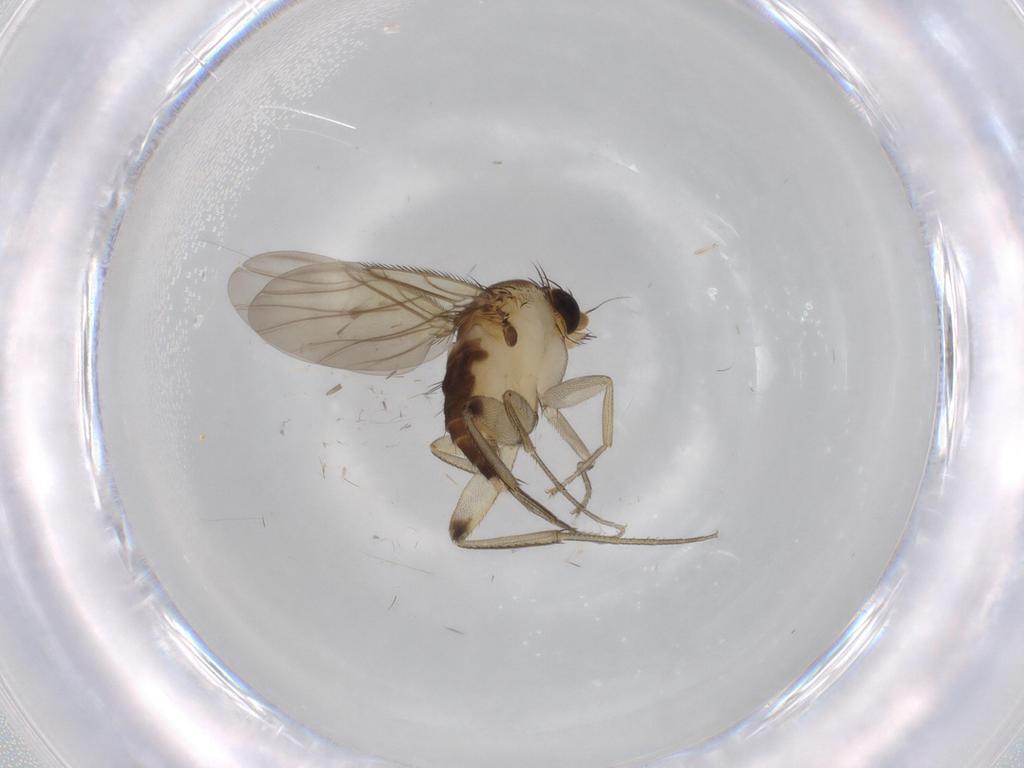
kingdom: Animalia
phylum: Arthropoda
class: Insecta
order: Diptera
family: Phoridae
